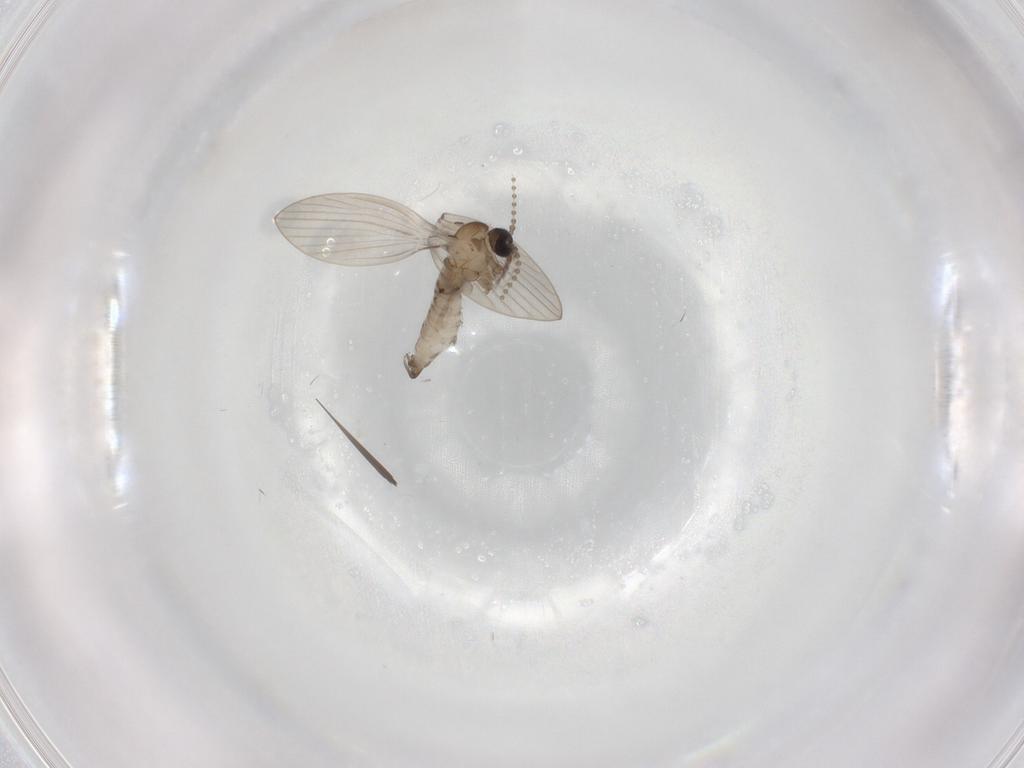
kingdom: Animalia
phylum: Arthropoda
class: Insecta
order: Diptera
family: Psychodidae
